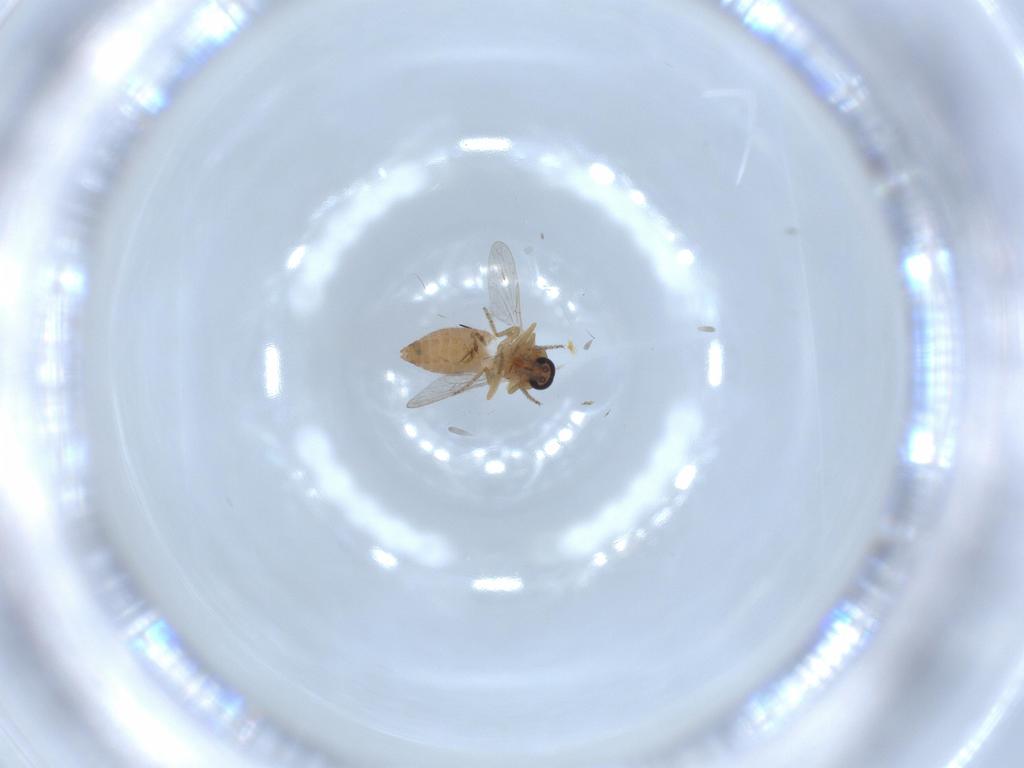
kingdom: Animalia
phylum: Arthropoda
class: Insecta
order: Diptera
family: Ceratopogonidae
